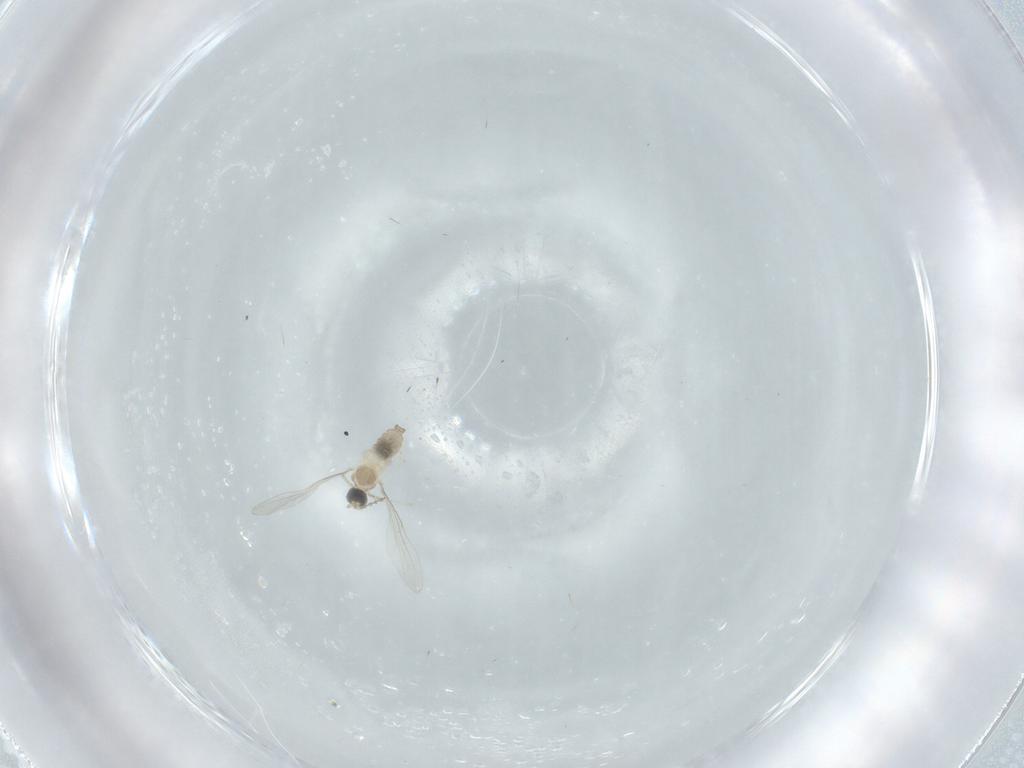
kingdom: Animalia
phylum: Arthropoda
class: Insecta
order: Diptera
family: Cecidomyiidae
